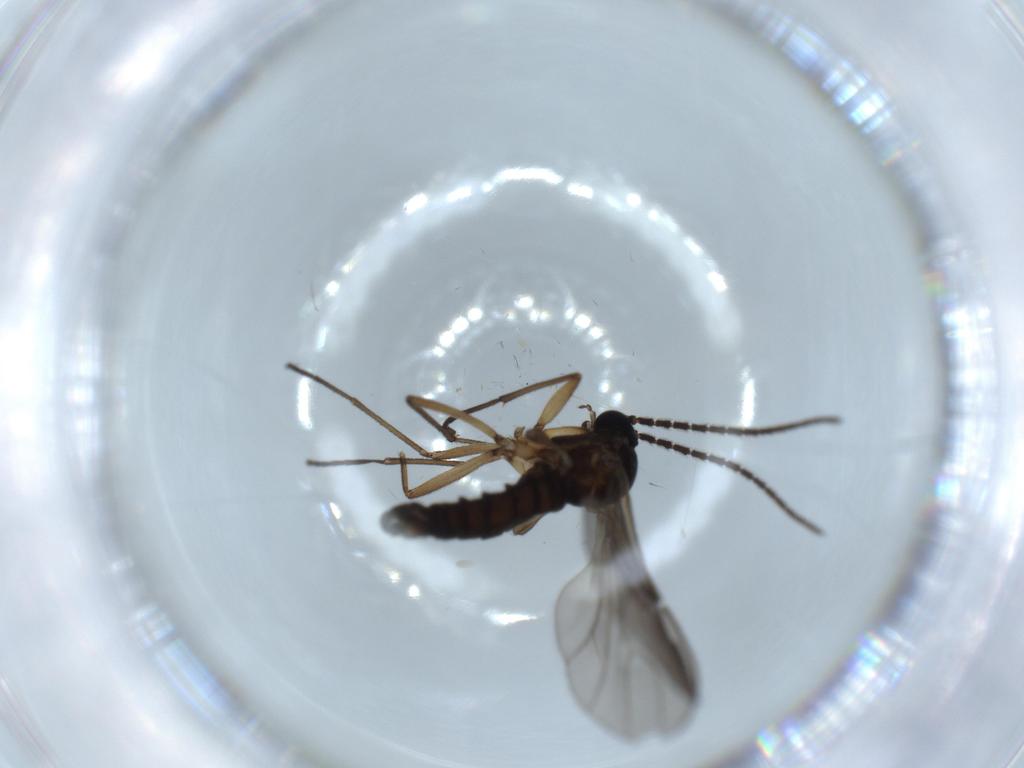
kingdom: Animalia
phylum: Arthropoda
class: Insecta
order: Diptera
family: Sciaridae
